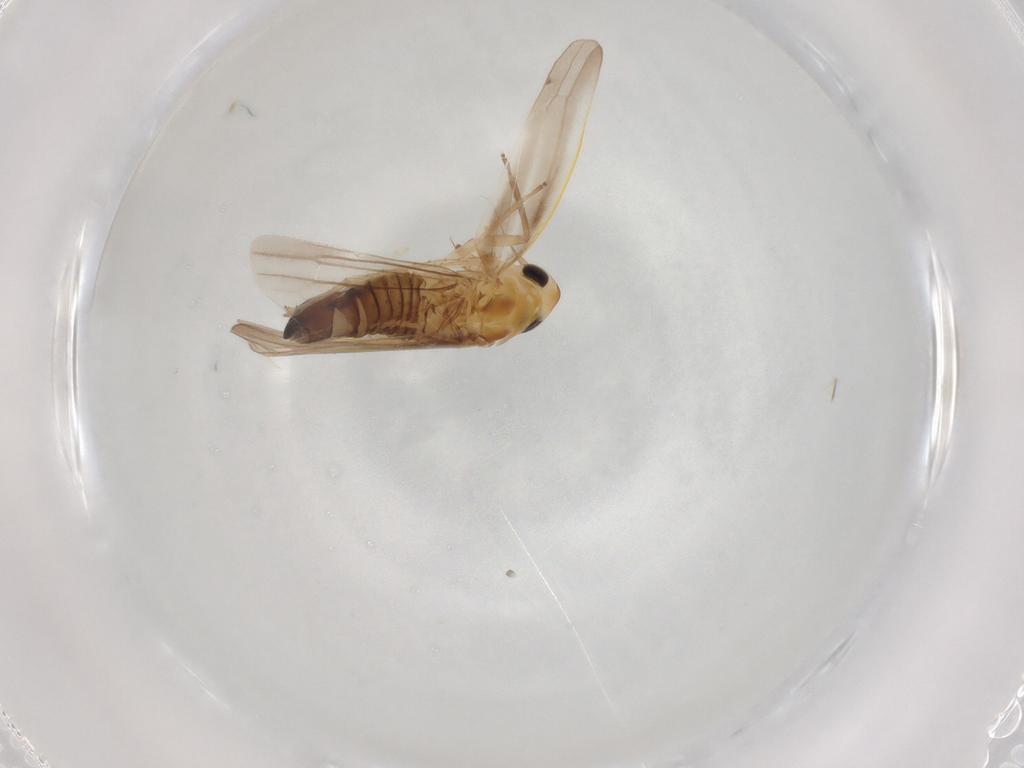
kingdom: Animalia
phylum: Arthropoda
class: Insecta
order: Hemiptera
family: Cicadellidae
